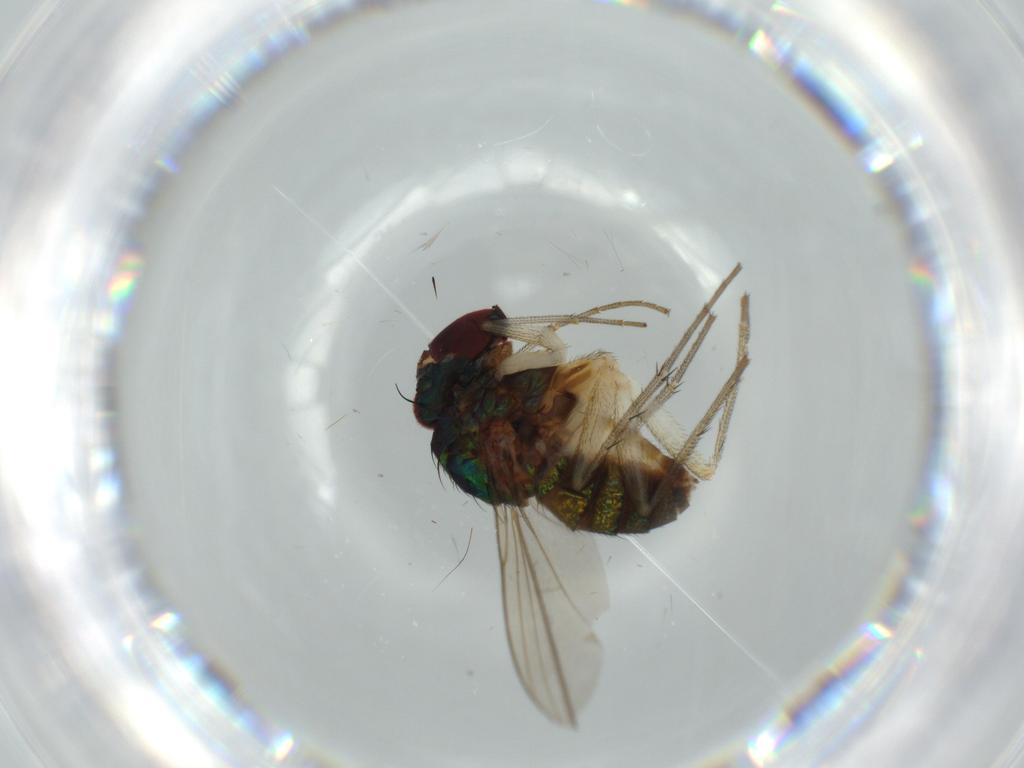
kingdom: Animalia
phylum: Arthropoda
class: Insecta
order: Diptera
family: Dolichopodidae
